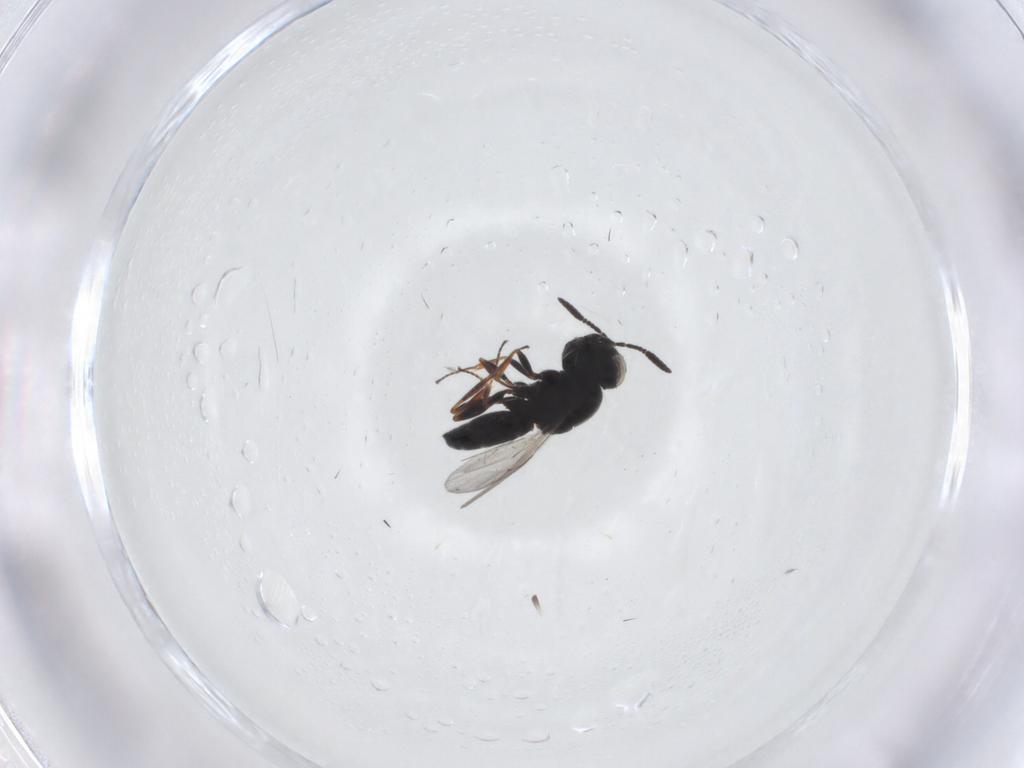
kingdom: Animalia
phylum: Arthropoda
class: Insecta
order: Hymenoptera
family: Scelionidae
